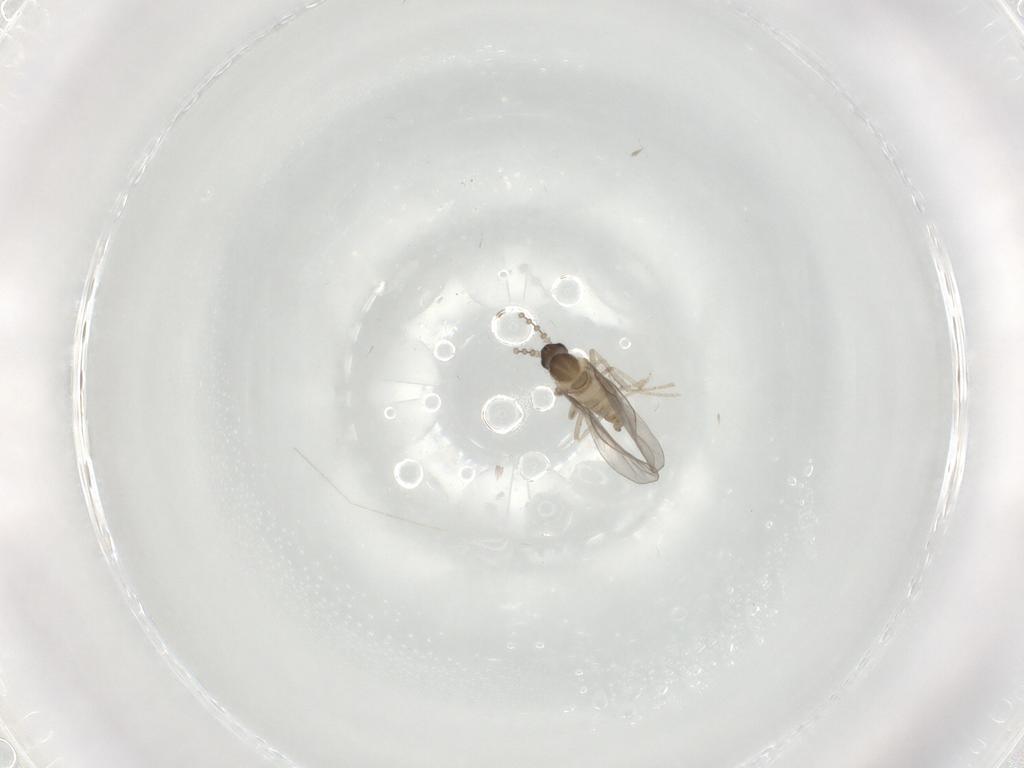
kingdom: Animalia
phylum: Arthropoda
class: Insecta
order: Diptera
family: Cecidomyiidae
